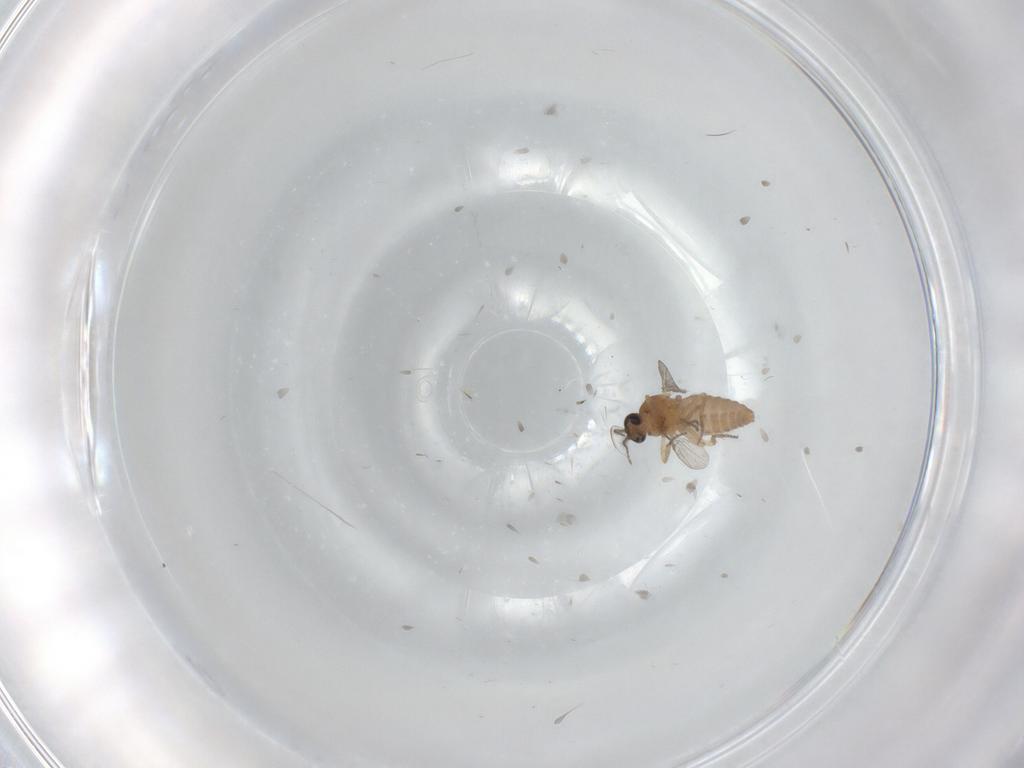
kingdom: Animalia
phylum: Arthropoda
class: Insecta
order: Diptera
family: Ceratopogonidae
